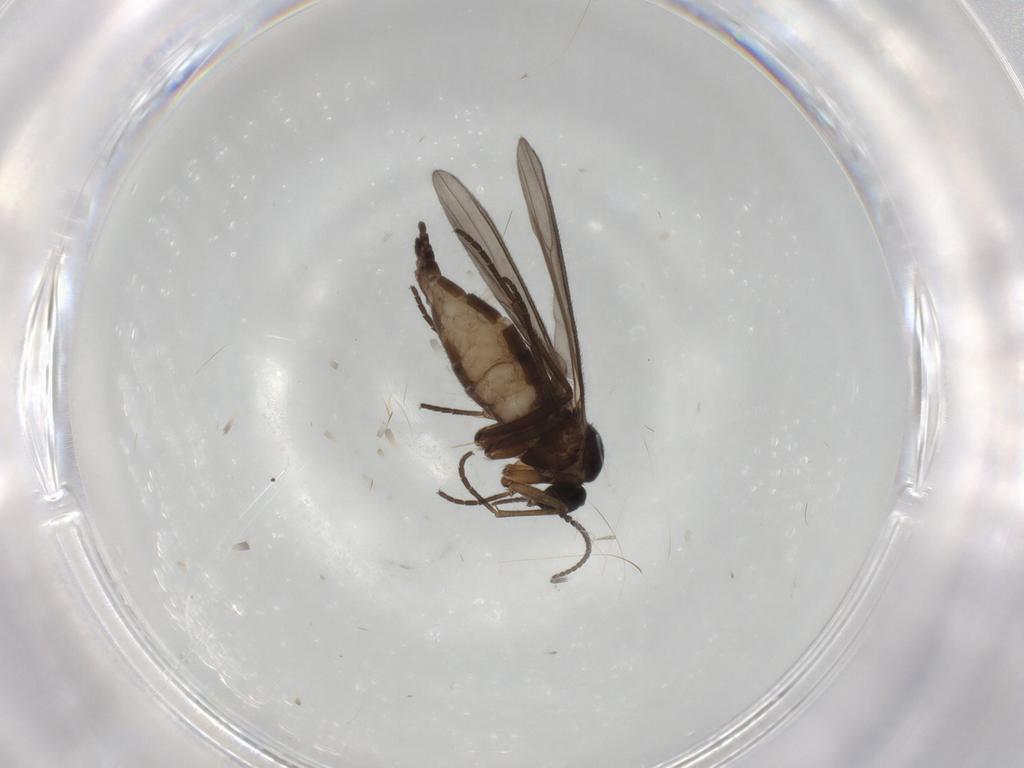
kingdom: Animalia
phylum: Arthropoda
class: Insecta
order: Diptera
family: Sciaridae
